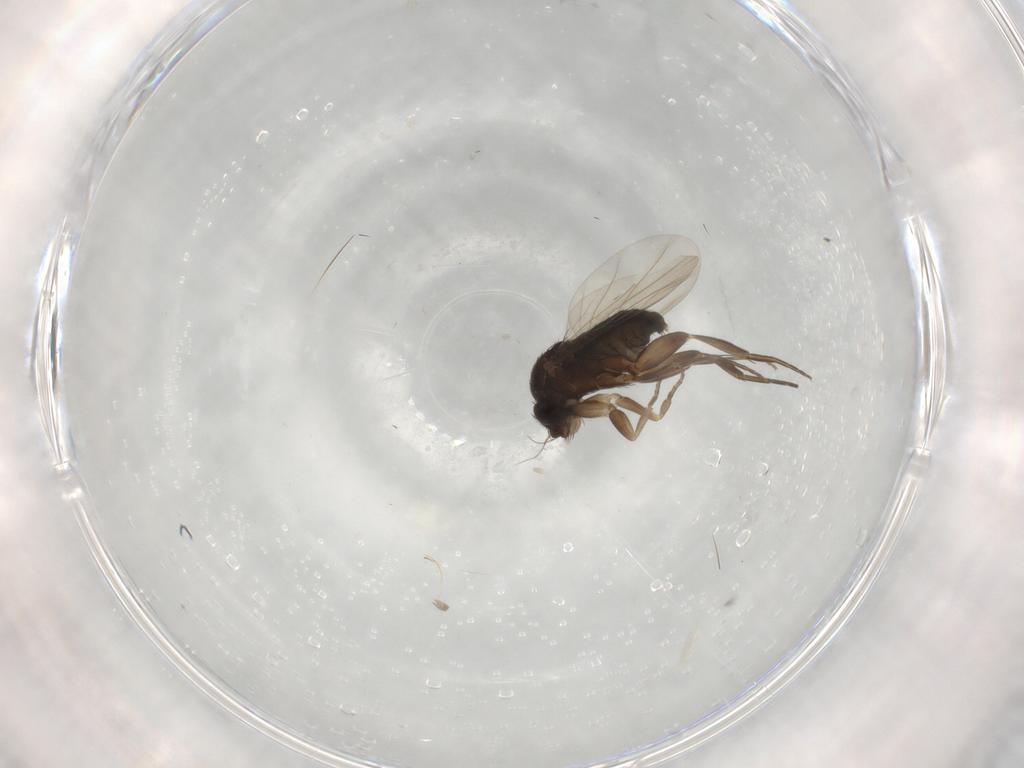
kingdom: Animalia
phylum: Arthropoda
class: Insecta
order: Diptera
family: Phoridae
